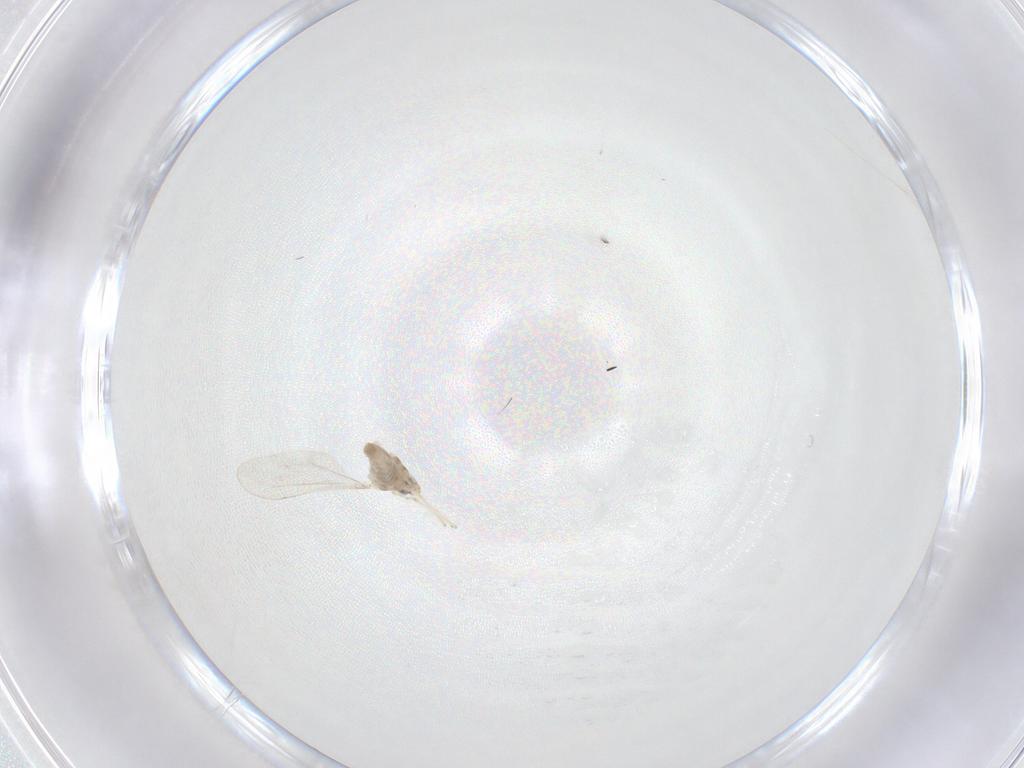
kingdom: Animalia
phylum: Arthropoda
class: Insecta
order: Diptera
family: Cecidomyiidae
